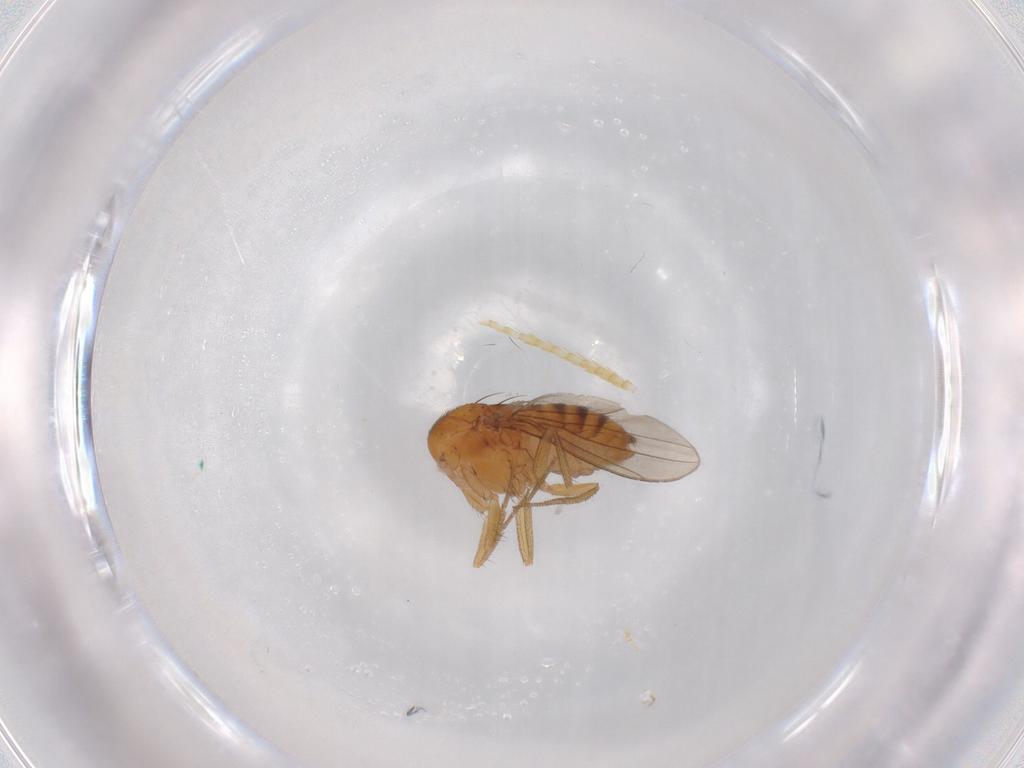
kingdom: Animalia
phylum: Arthropoda
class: Insecta
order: Diptera
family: Drosophilidae
